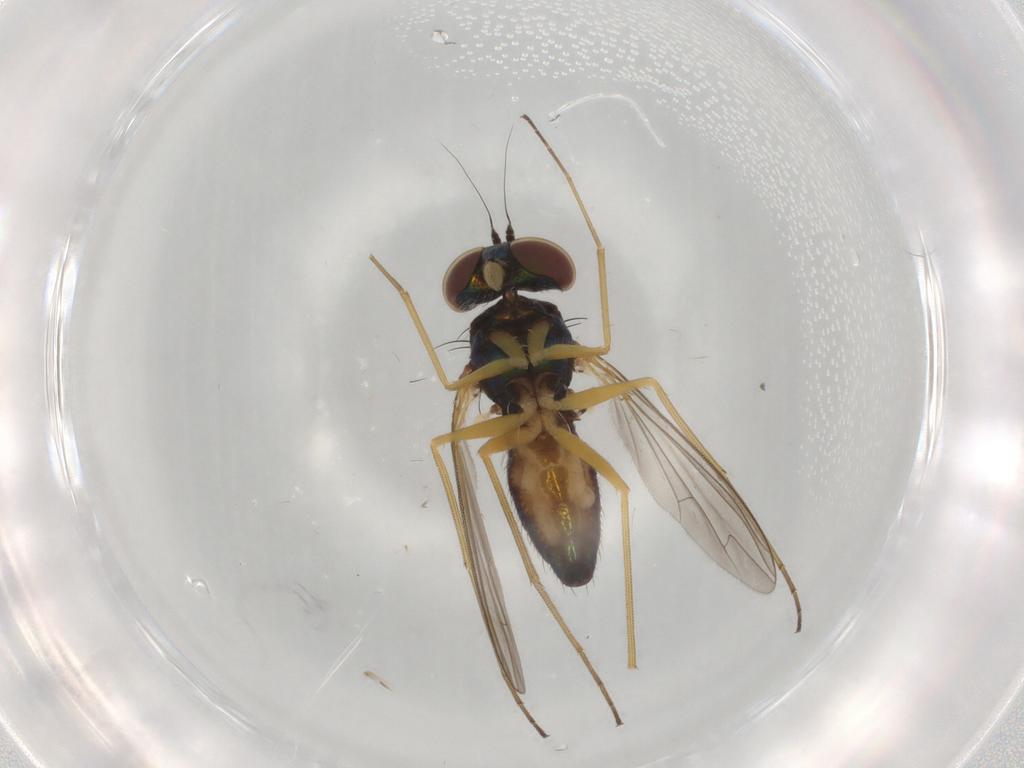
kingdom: Animalia
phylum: Arthropoda
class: Insecta
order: Diptera
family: Dolichopodidae
